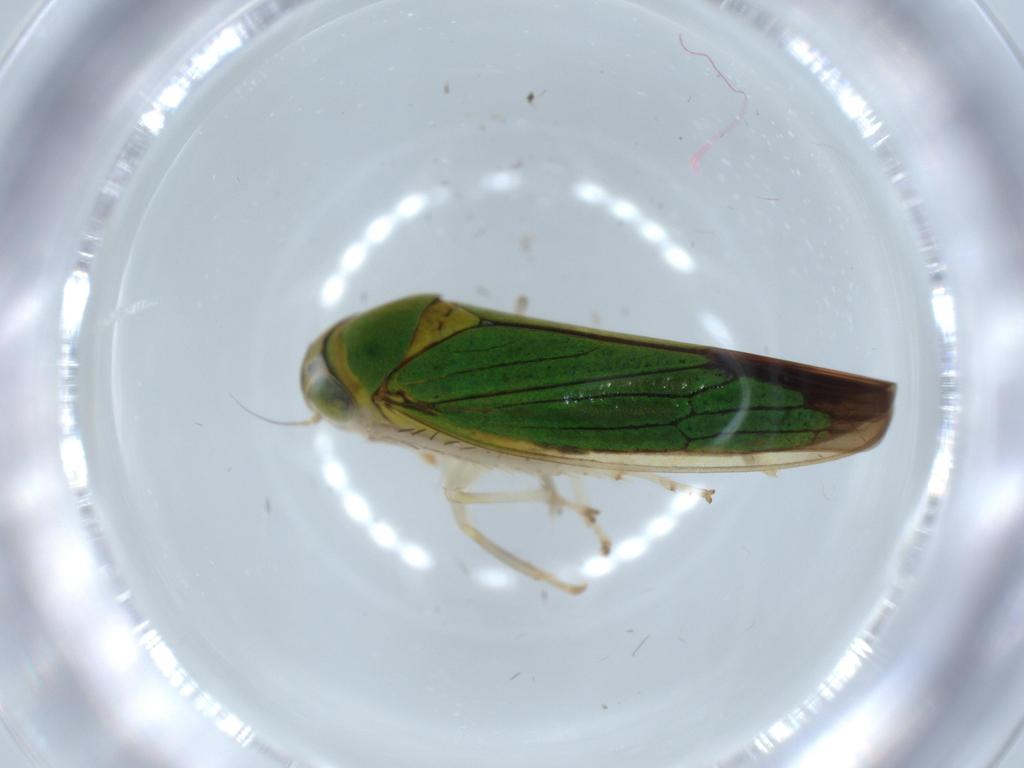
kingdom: Animalia
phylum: Arthropoda
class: Insecta
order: Hemiptera
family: Cicadellidae
